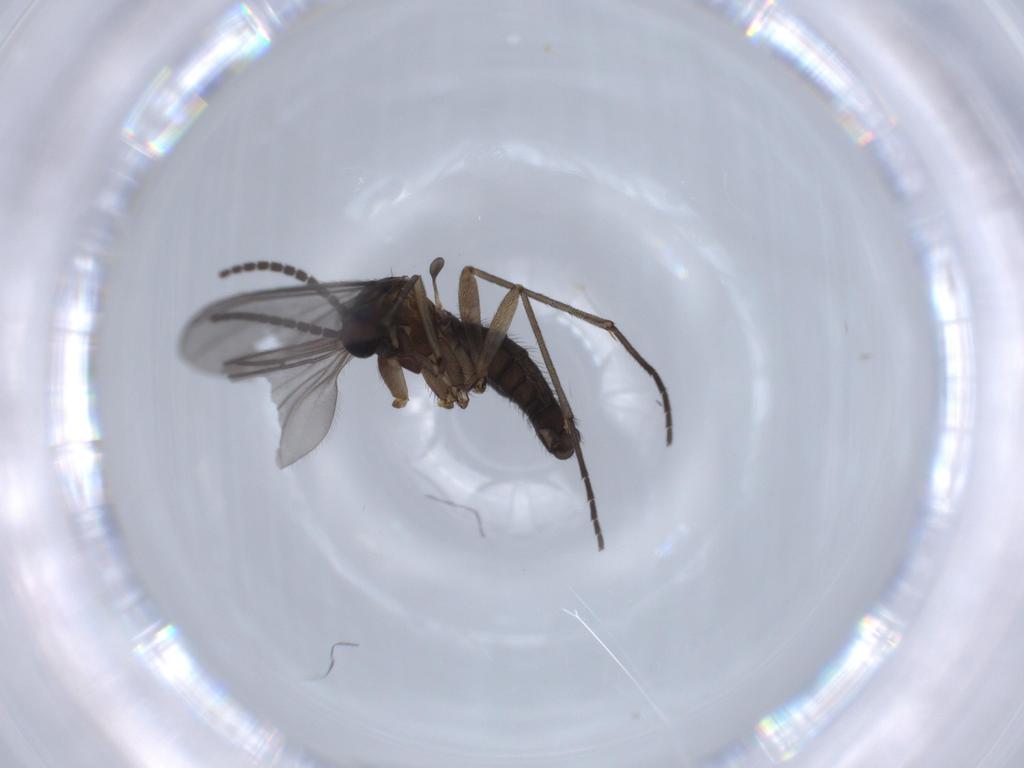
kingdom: Animalia
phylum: Arthropoda
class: Insecta
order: Diptera
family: Sciaridae
